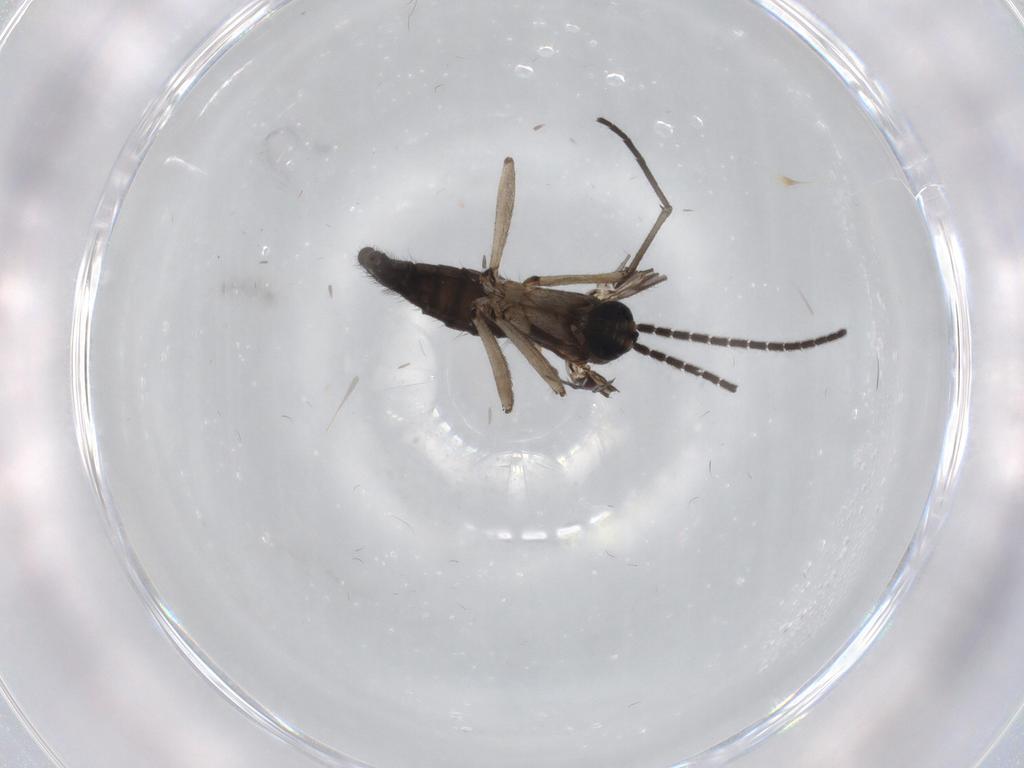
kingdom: Animalia
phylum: Arthropoda
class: Insecta
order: Diptera
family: Sciaridae
